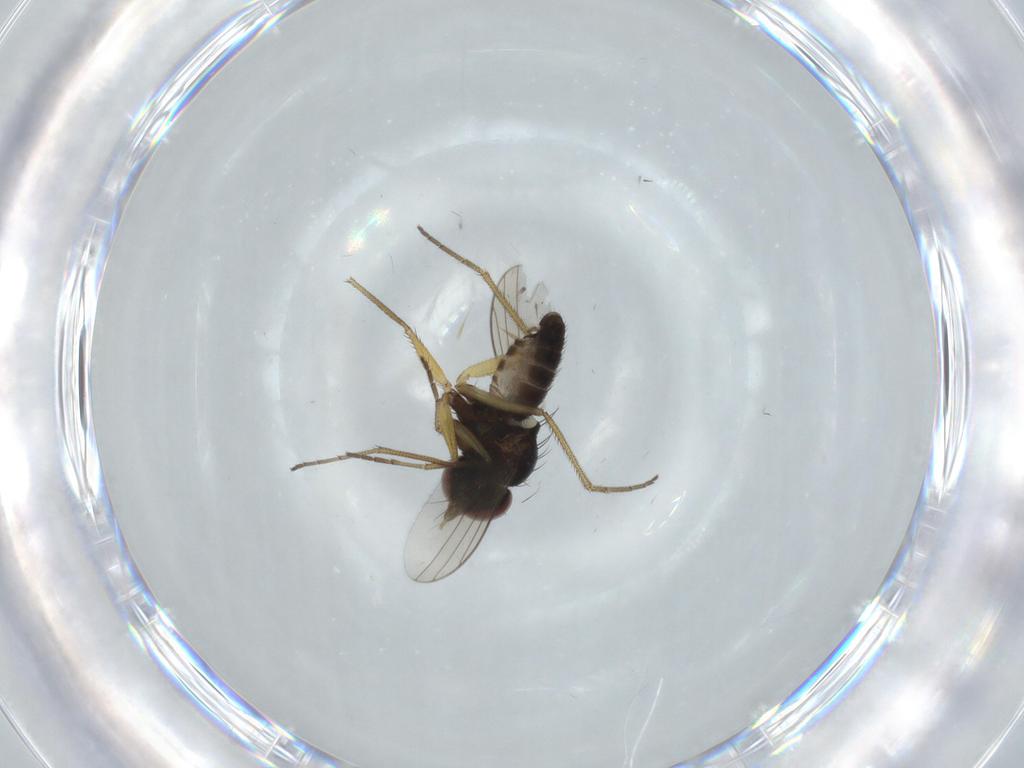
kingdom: Animalia
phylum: Arthropoda
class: Insecta
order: Diptera
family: Dolichopodidae
